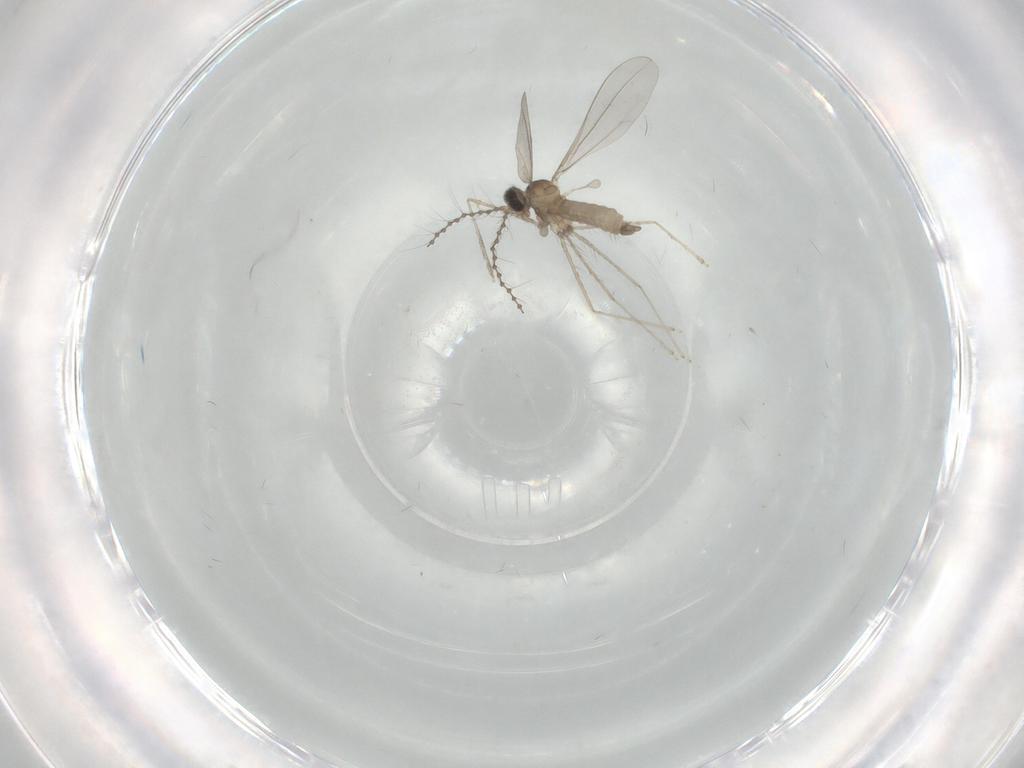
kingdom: Animalia
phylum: Arthropoda
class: Insecta
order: Diptera
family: Cecidomyiidae
